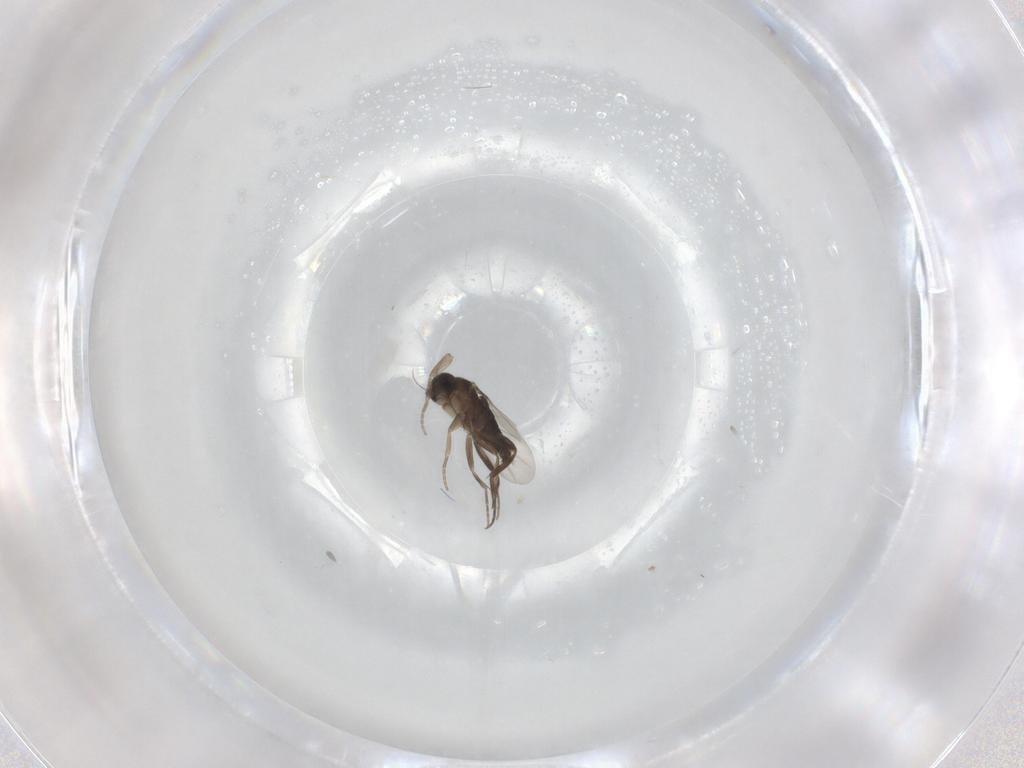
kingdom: Animalia
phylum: Arthropoda
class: Insecta
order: Diptera
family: Phoridae
